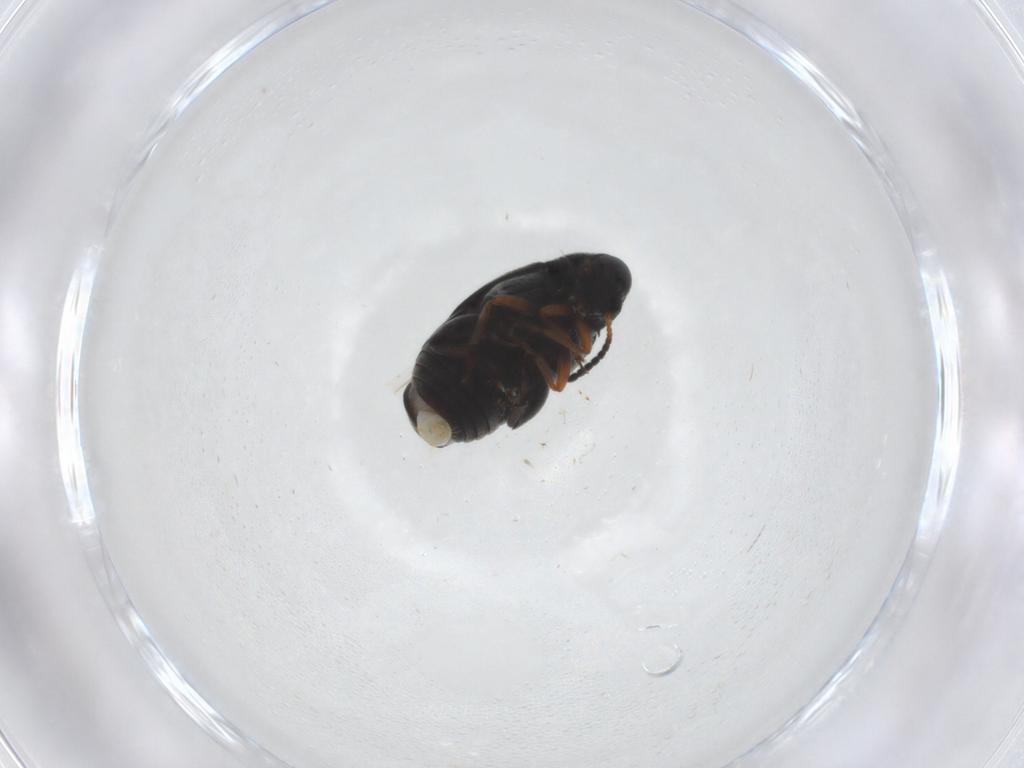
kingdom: Animalia
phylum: Arthropoda
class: Insecta
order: Coleoptera
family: Chrysomelidae
